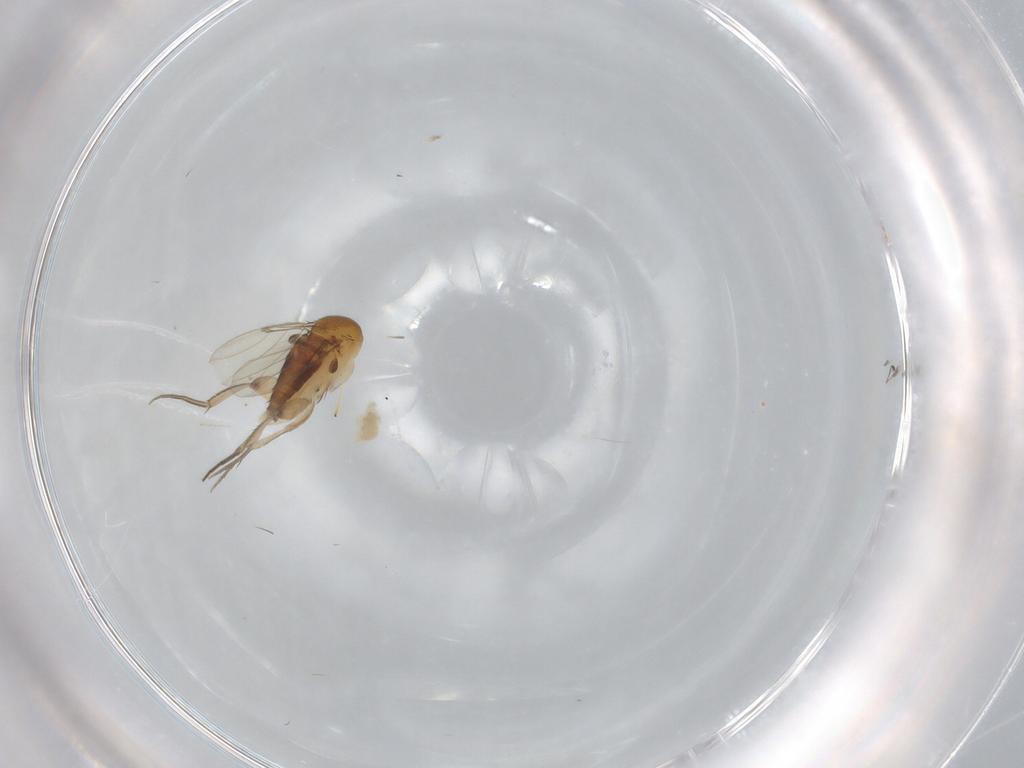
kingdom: Animalia
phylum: Arthropoda
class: Insecta
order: Diptera
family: Phoridae
